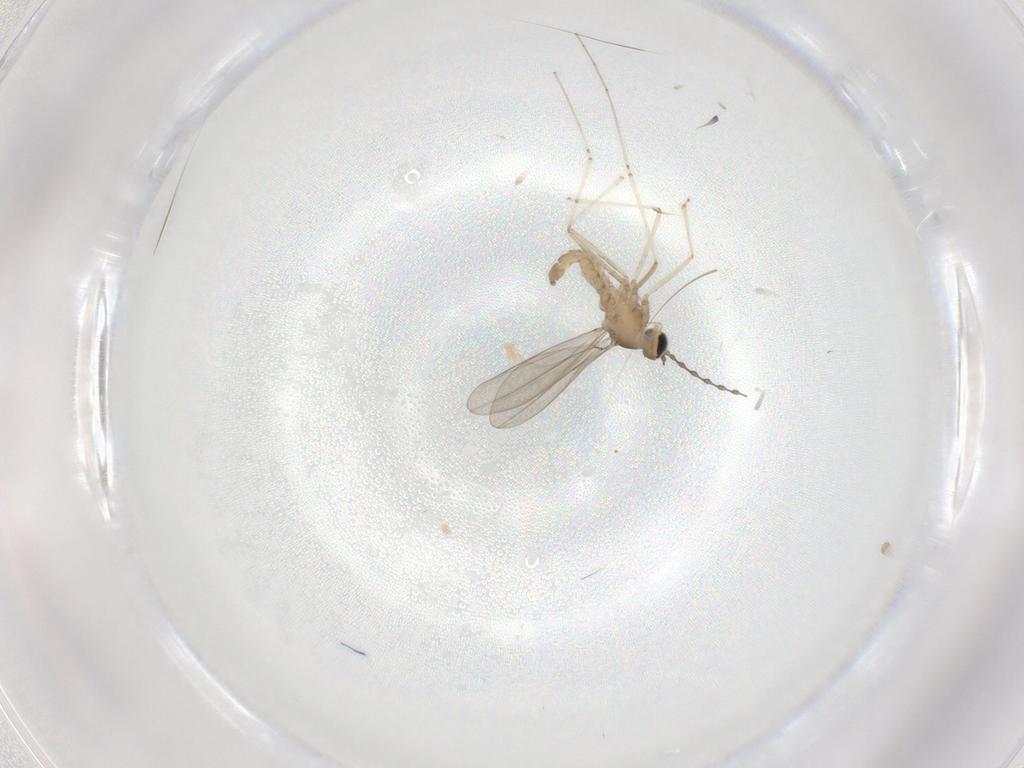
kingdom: Animalia
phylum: Arthropoda
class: Insecta
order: Diptera
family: Cecidomyiidae
